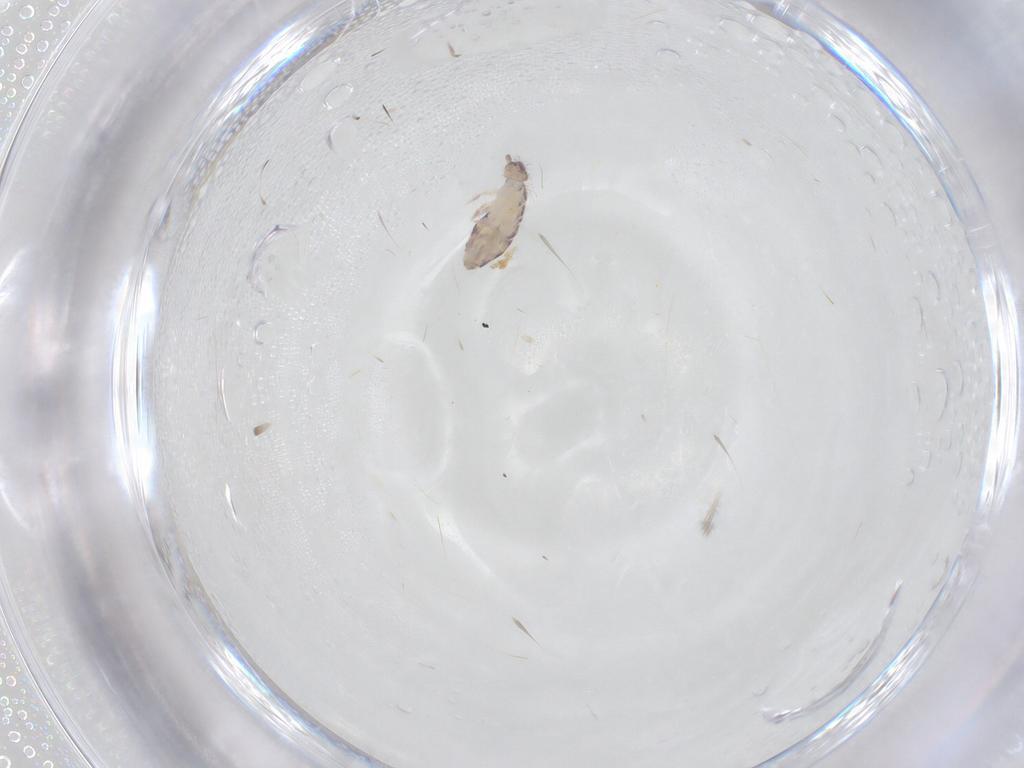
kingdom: Animalia
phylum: Arthropoda
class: Collembola
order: Entomobryomorpha
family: Entomobryidae
